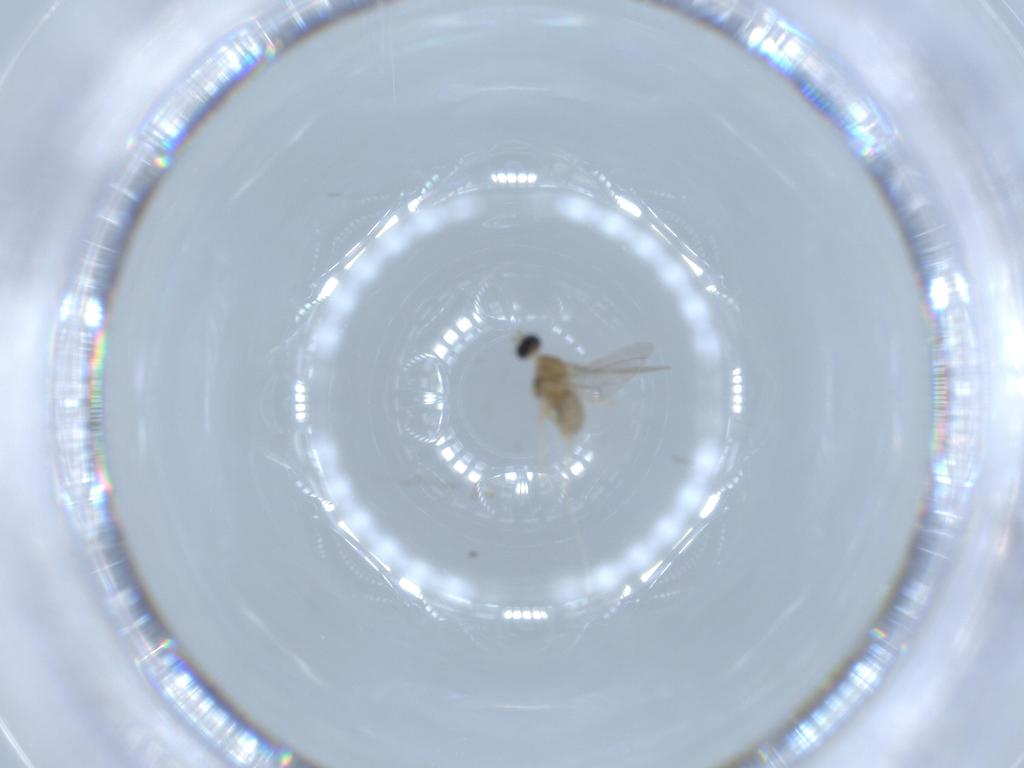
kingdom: Animalia
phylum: Arthropoda
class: Insecta
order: Diptera
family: Cecidomyiidae
